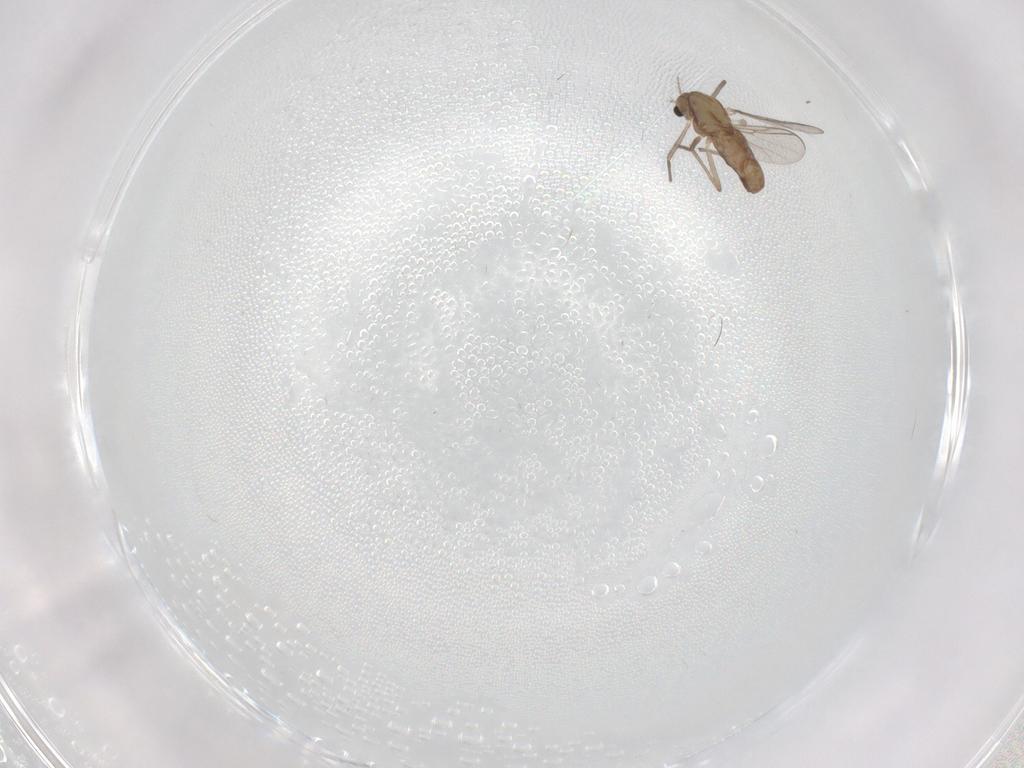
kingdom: Animalia
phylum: Arthropoda
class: Insecta
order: Diptera
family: Chironomidae
